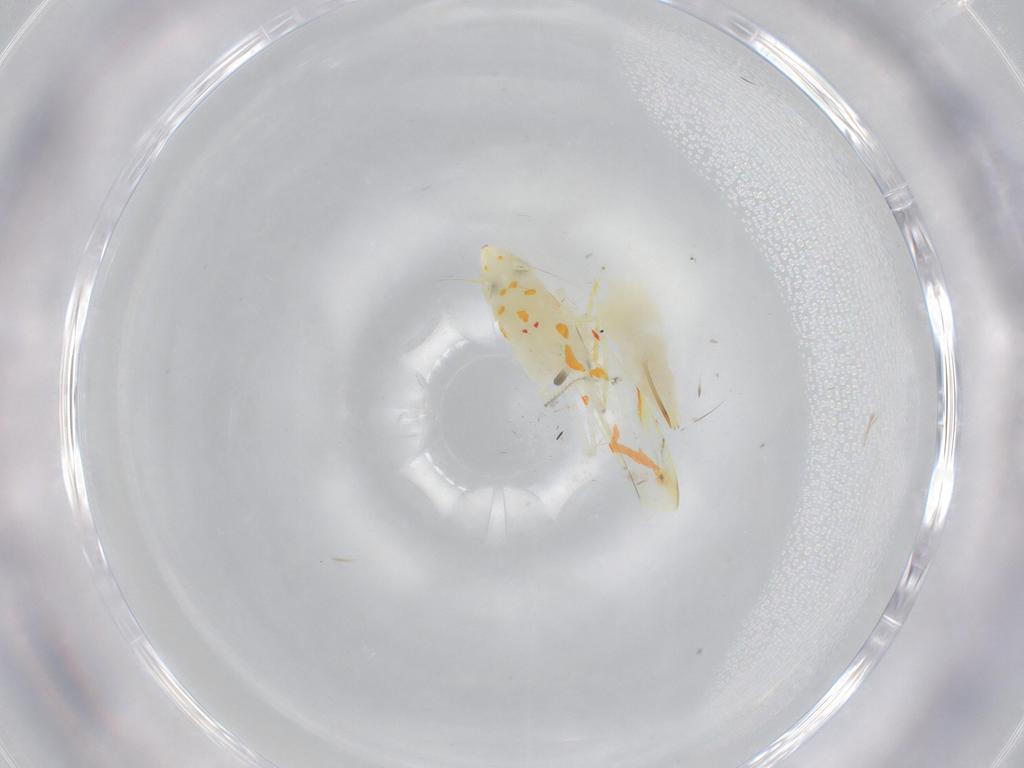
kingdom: Animalia
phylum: Arthropoda
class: Insecta
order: Hemiptera
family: Cicadellidae
